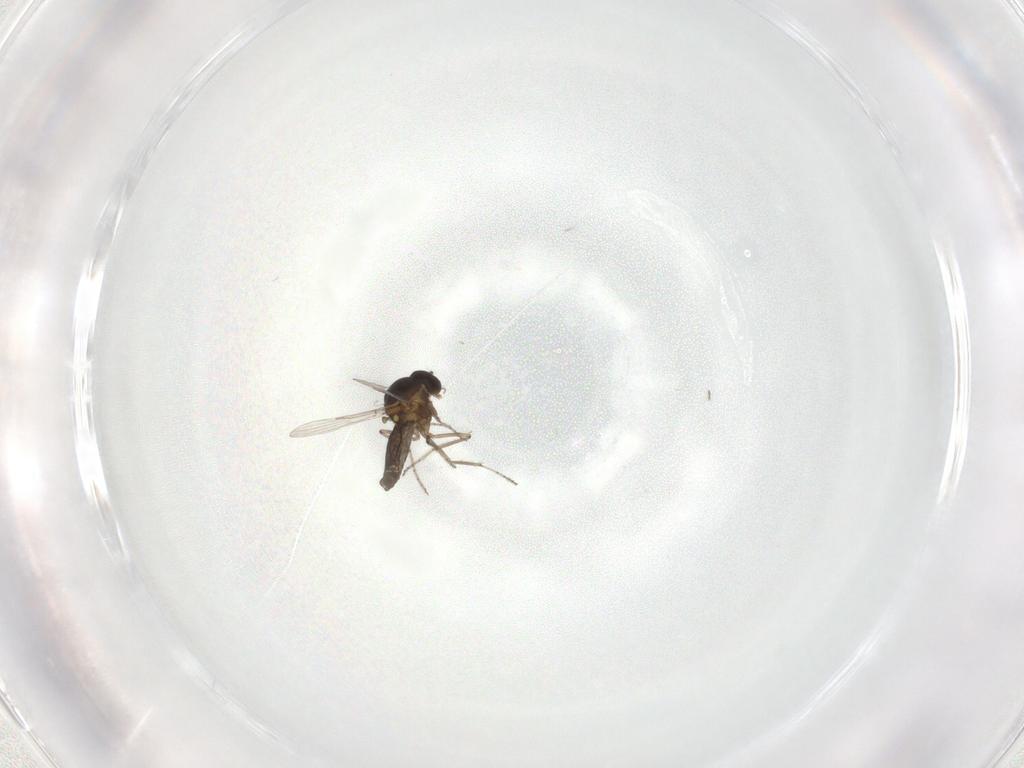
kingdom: Animalia
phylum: Arthropoda
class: Insecta
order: Diptera
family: Ceratopogonidae
